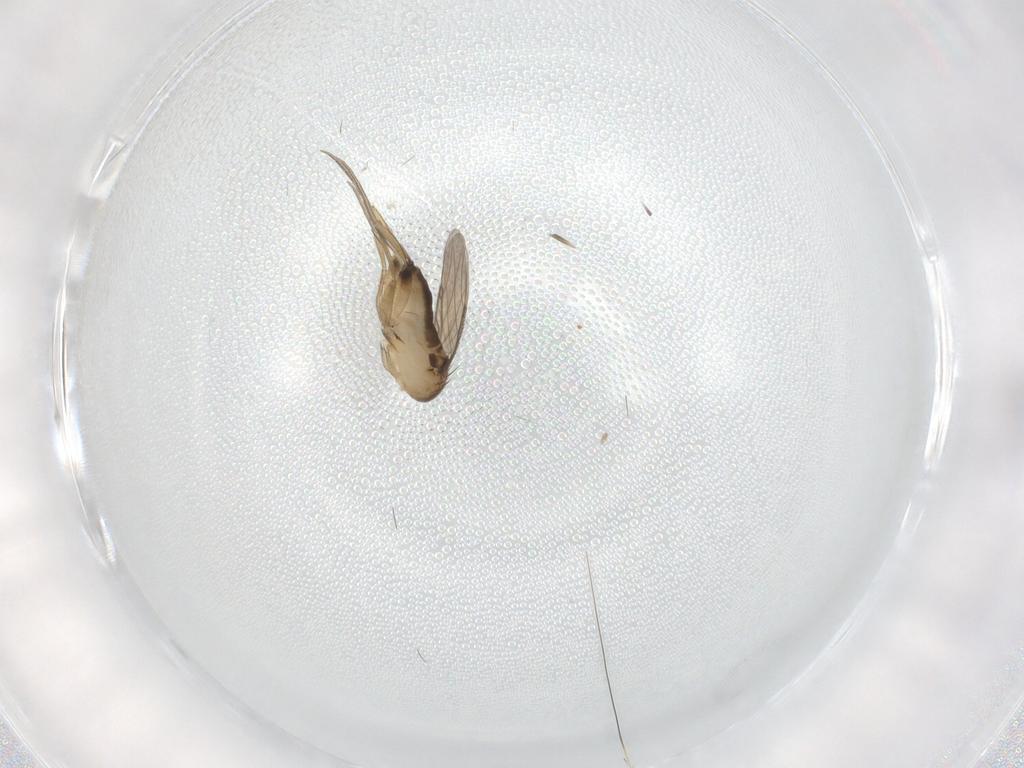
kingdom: Animalia
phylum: Arthropoda
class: Insecta
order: Diptera
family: Phoridae
